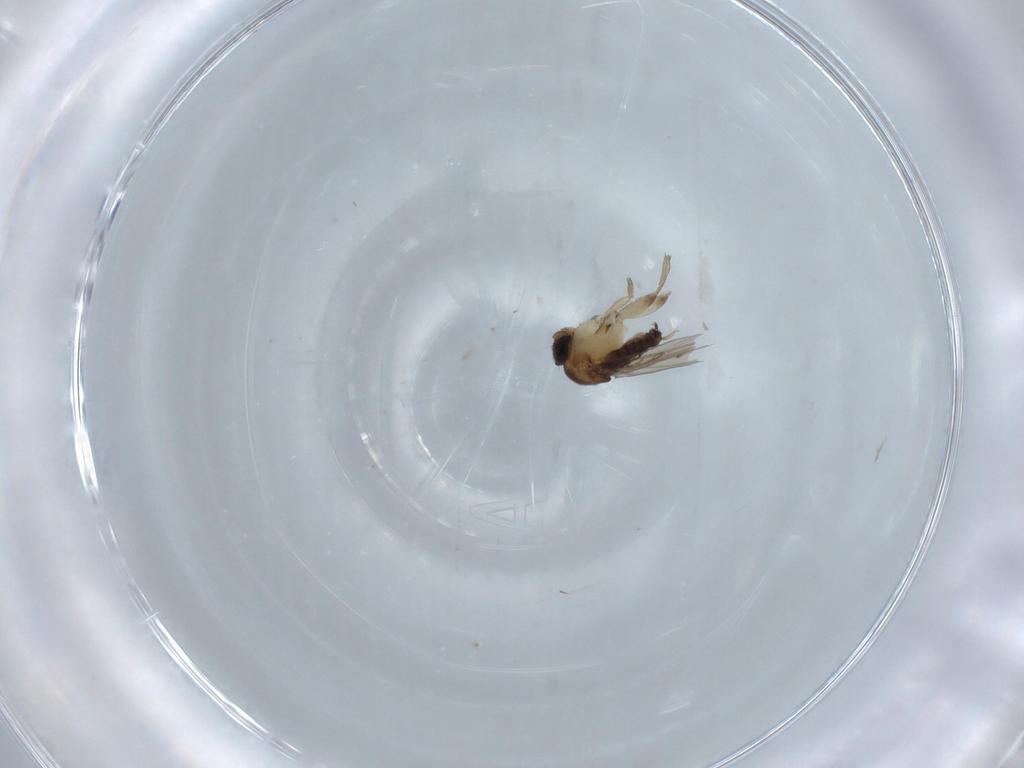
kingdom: Animalia
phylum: Arthropoda
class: Insecta
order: Diptera
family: Phoridae
